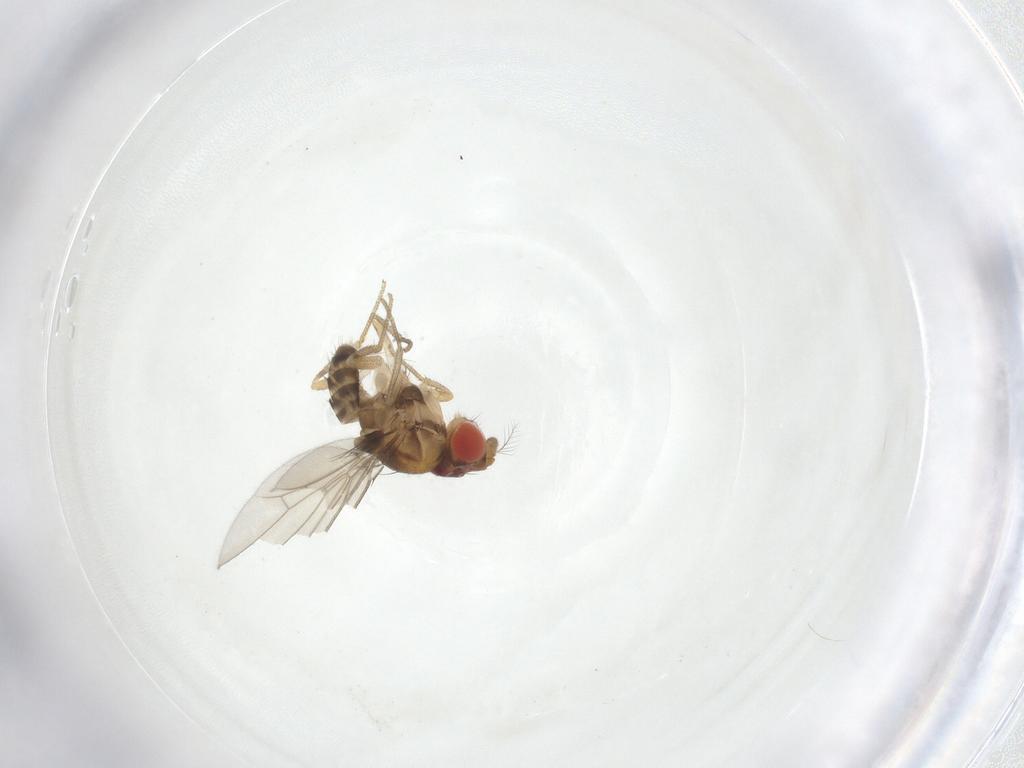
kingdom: Animalia
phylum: Arthropoda
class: Insecta
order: Diptera
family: Drosophilidae
